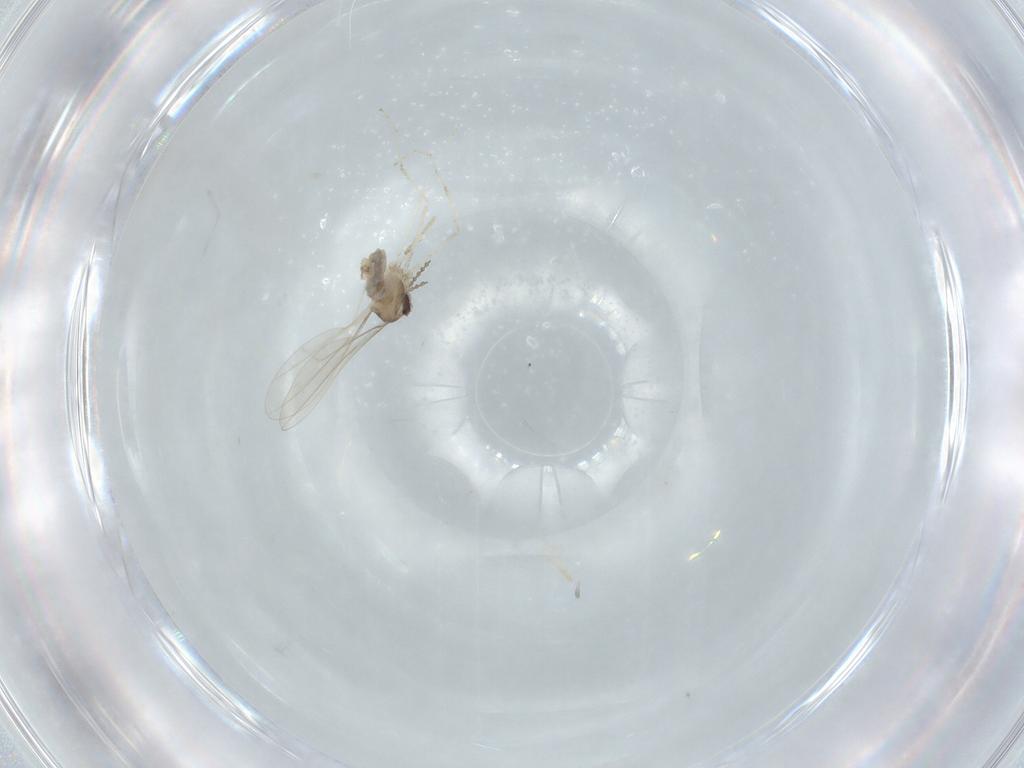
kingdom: Animalia
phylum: Arthropoda
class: Insecta
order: Diptera
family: Cecidomyiidae
